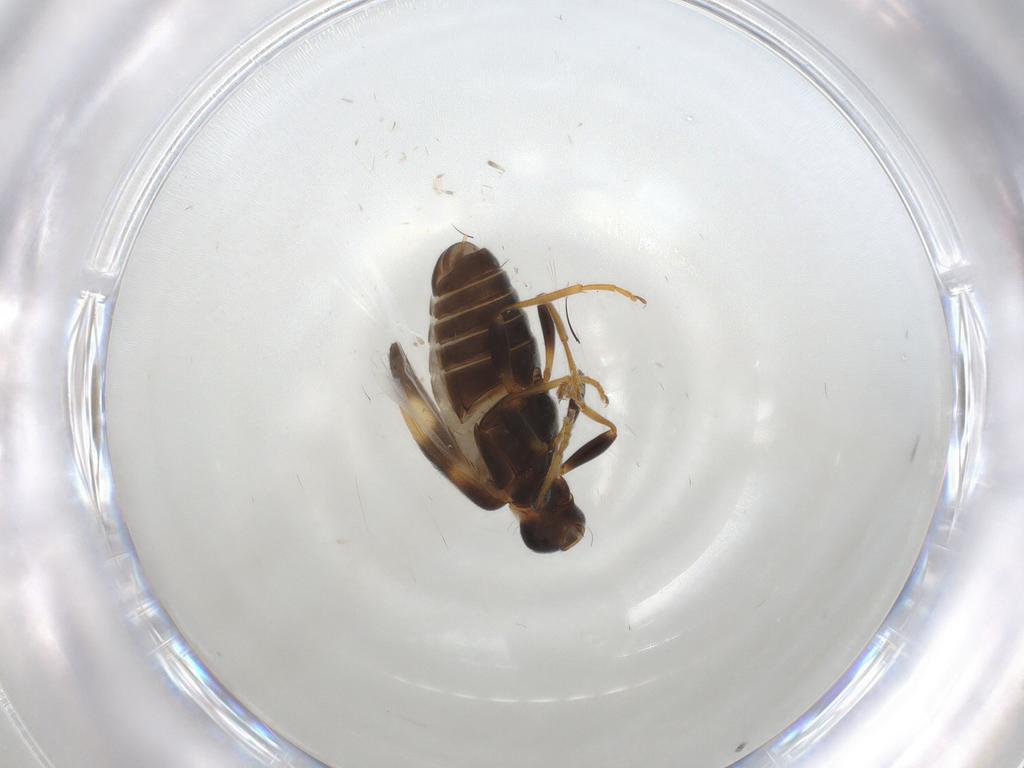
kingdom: Animalia
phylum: Arthropoda
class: Insecta
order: Coleoptera
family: Anthicidae
